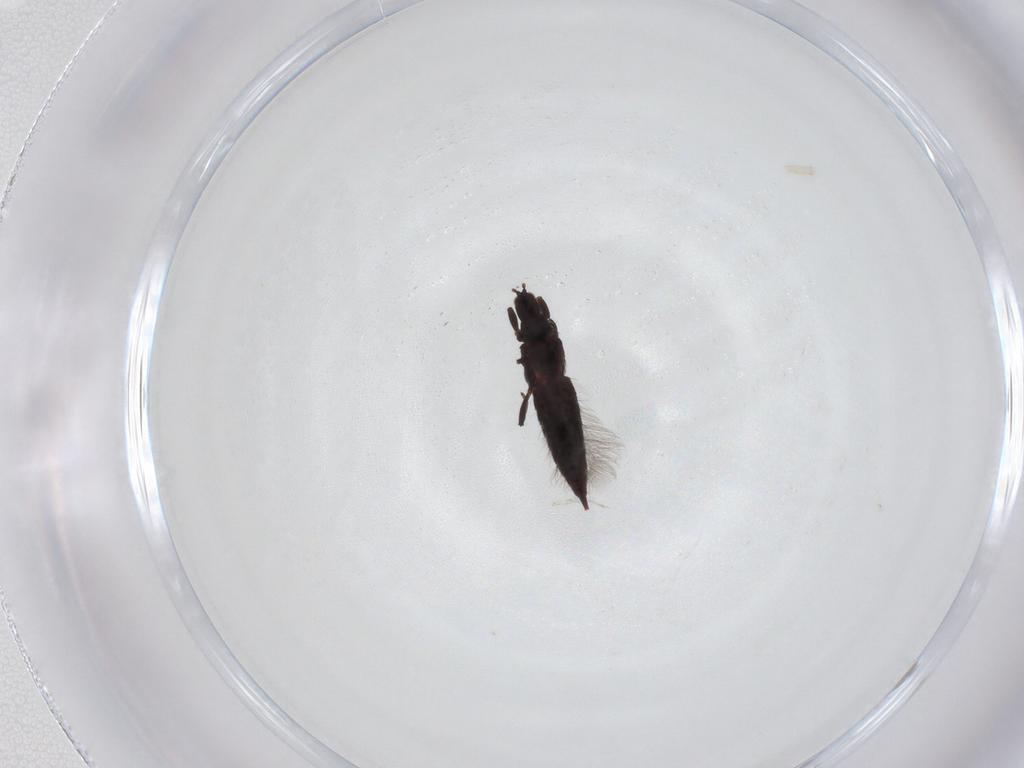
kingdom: Animalia
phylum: Arthropoda
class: Insecta
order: Thysanoptera
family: Phlaeothripidae
